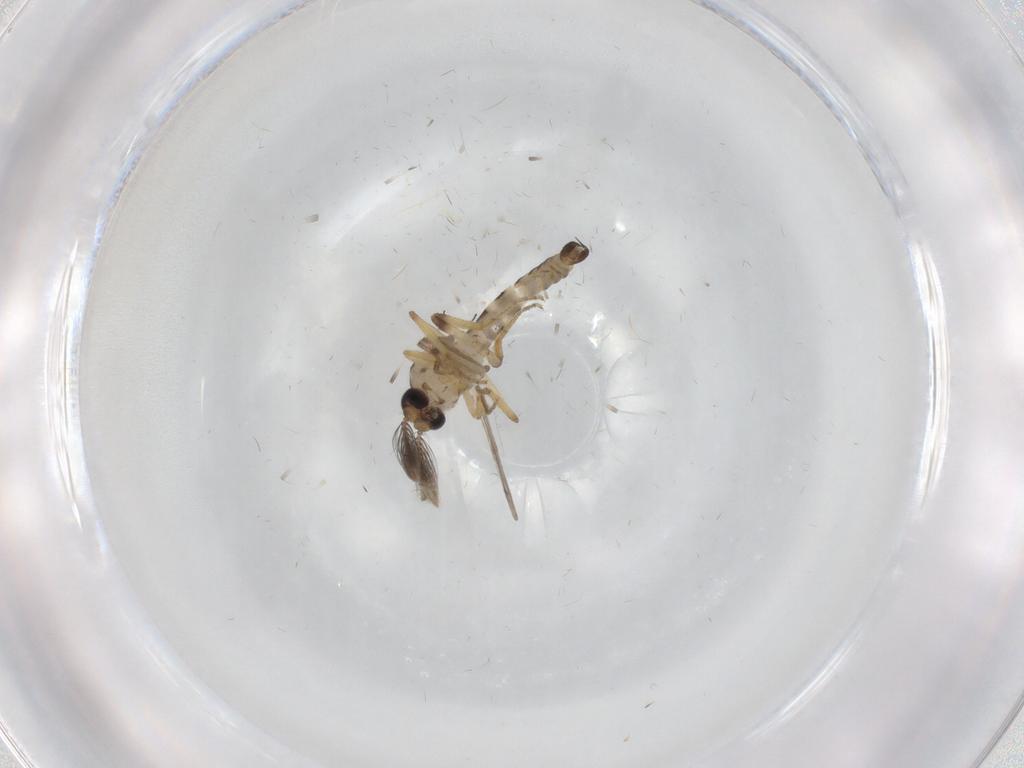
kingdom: Animalia
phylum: Arthropoda
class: Insecta
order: Diptera
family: Ceratopogonidae
